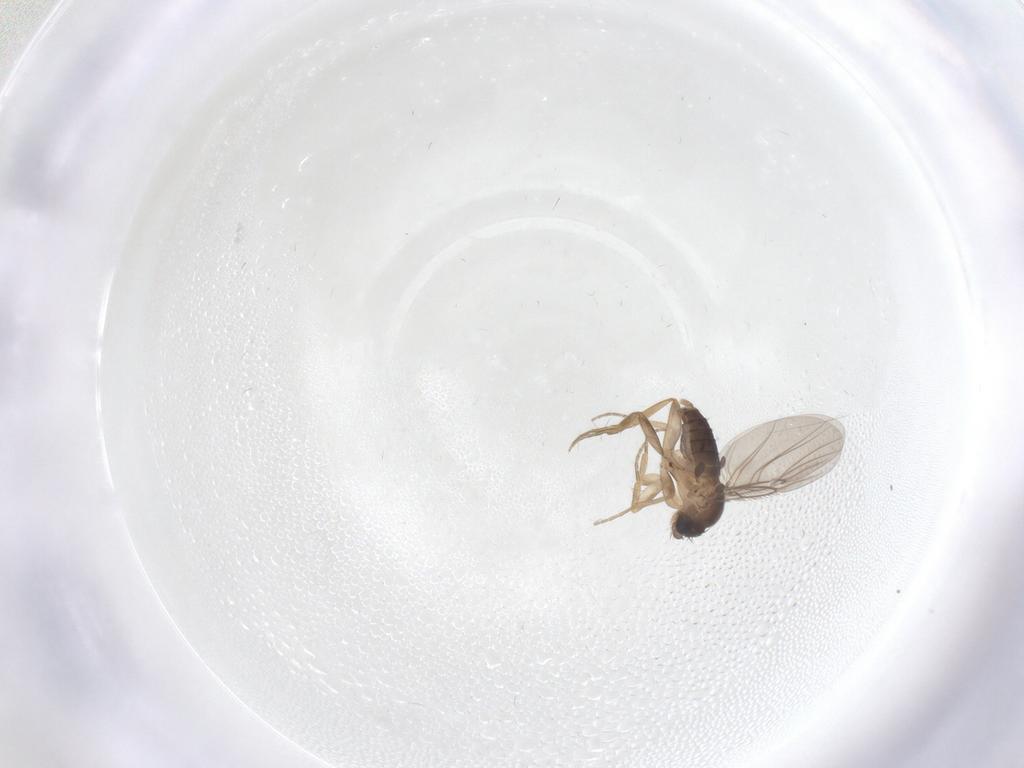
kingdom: Animalia
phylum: Arthropoda
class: Insecta
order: Diptera
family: Phoridae
